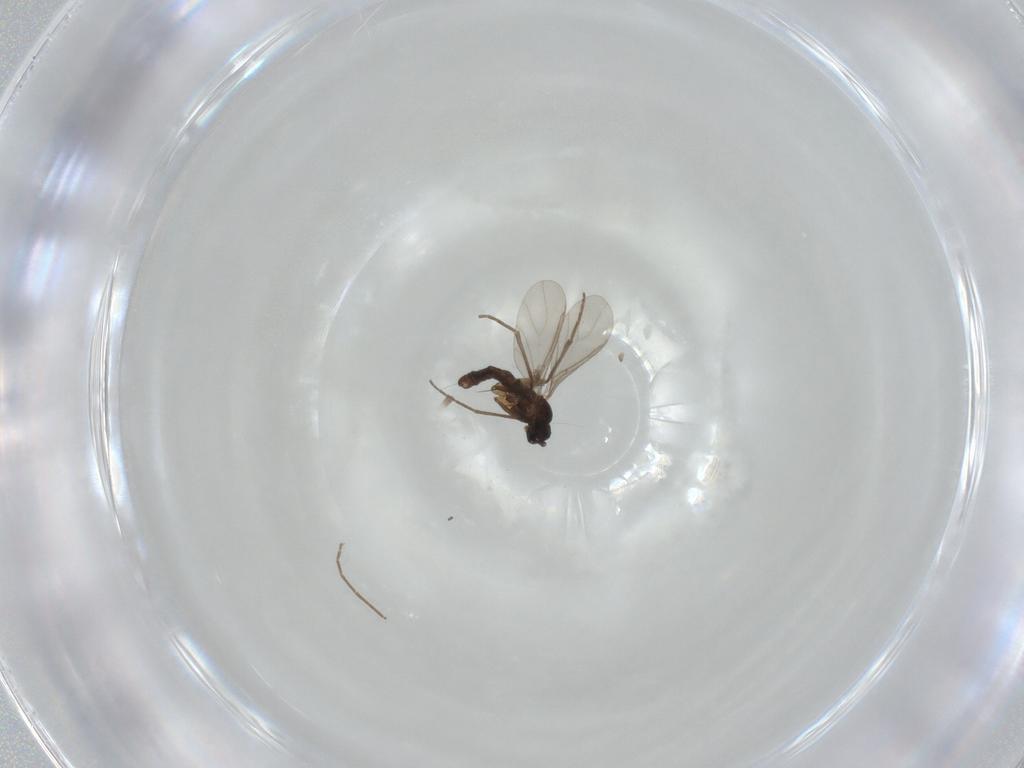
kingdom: Animalia
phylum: Arthropoda
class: Insecta
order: Diptera
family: Sciaridae
